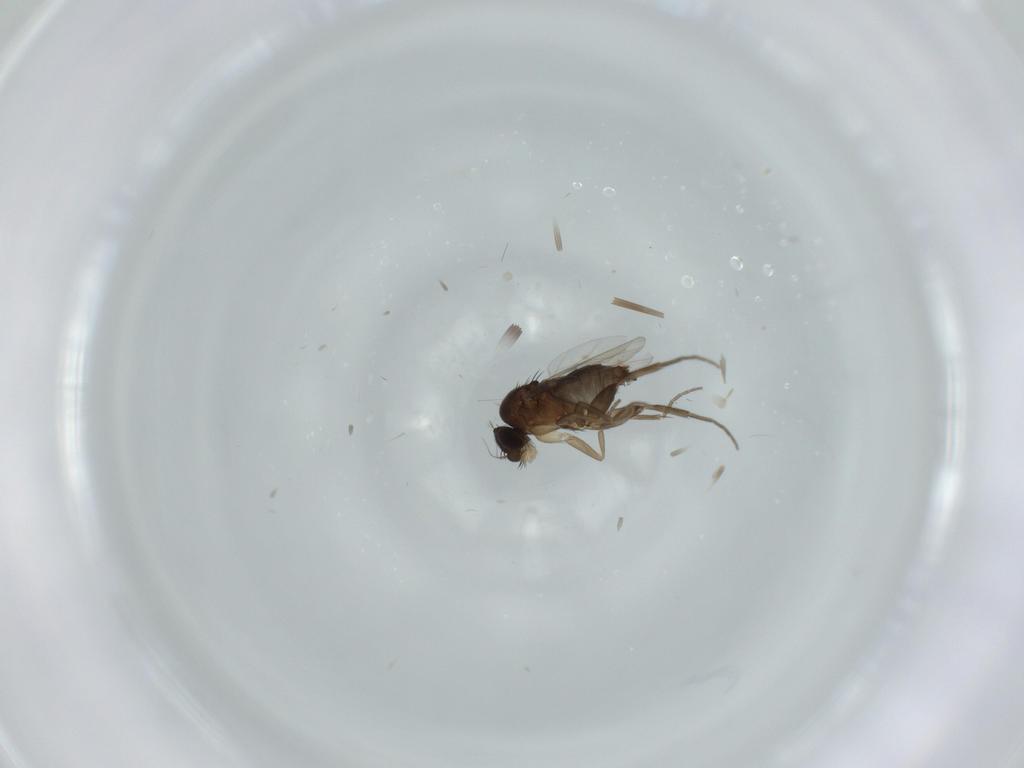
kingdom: Animalia
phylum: Arthropoda
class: Insecta
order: Diptera
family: Phoridae
